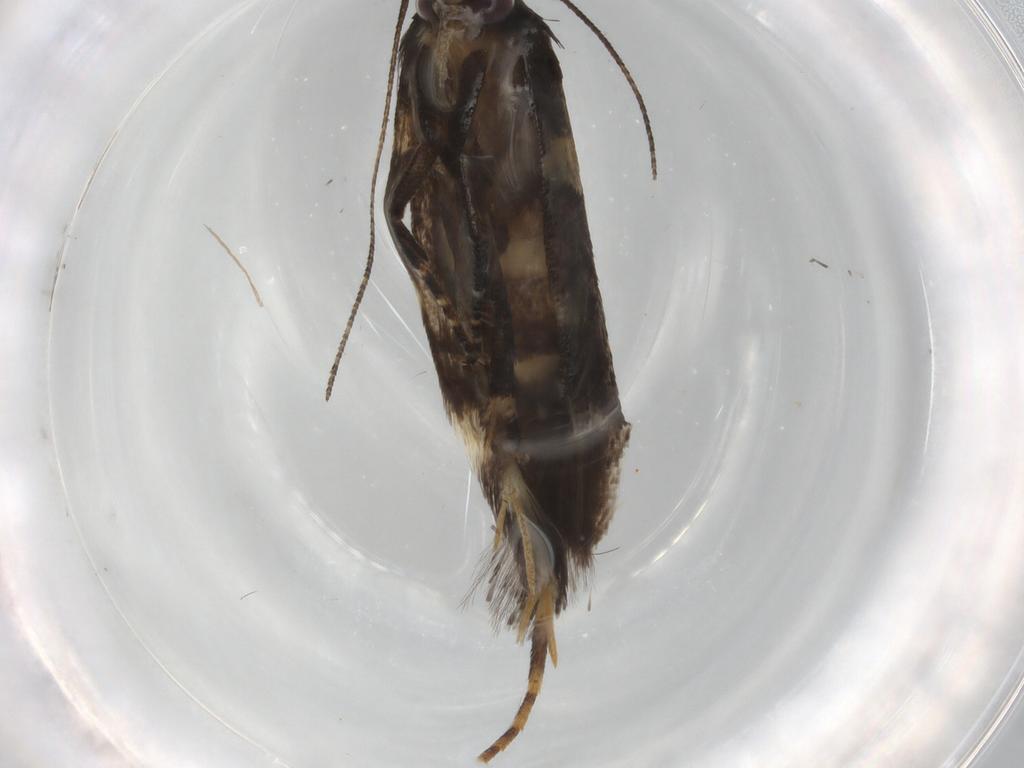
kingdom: Animalia
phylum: Arthropoda
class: Insecta
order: Lepidoptera
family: Gelechiidae
